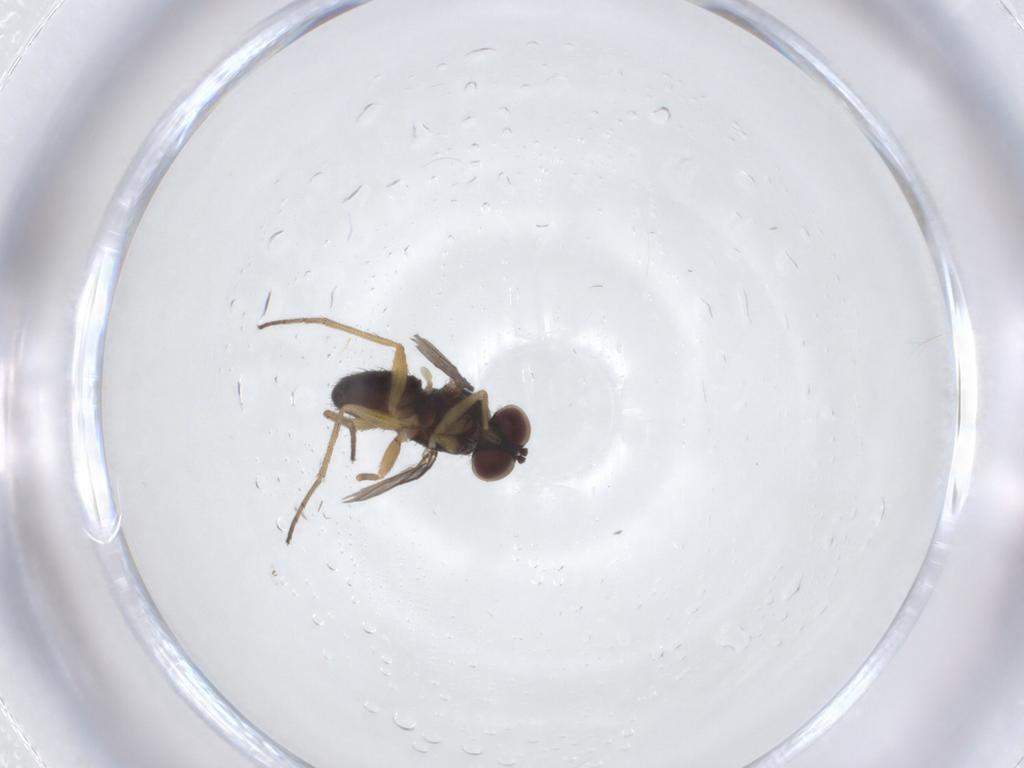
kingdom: Animalia
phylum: Arthropoda
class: Insecta
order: Diptera
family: Dolichopodidae
